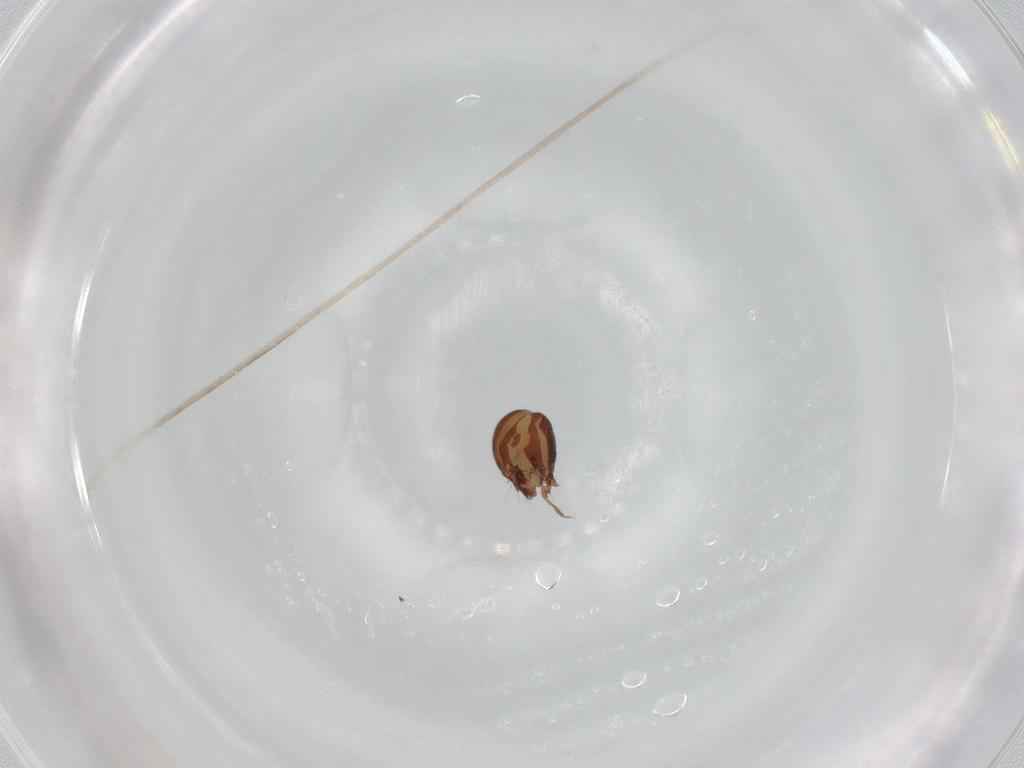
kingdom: Animalia
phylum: Arthropoda
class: Arachnida
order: Sarcoptiformes
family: Mochlozetidae
